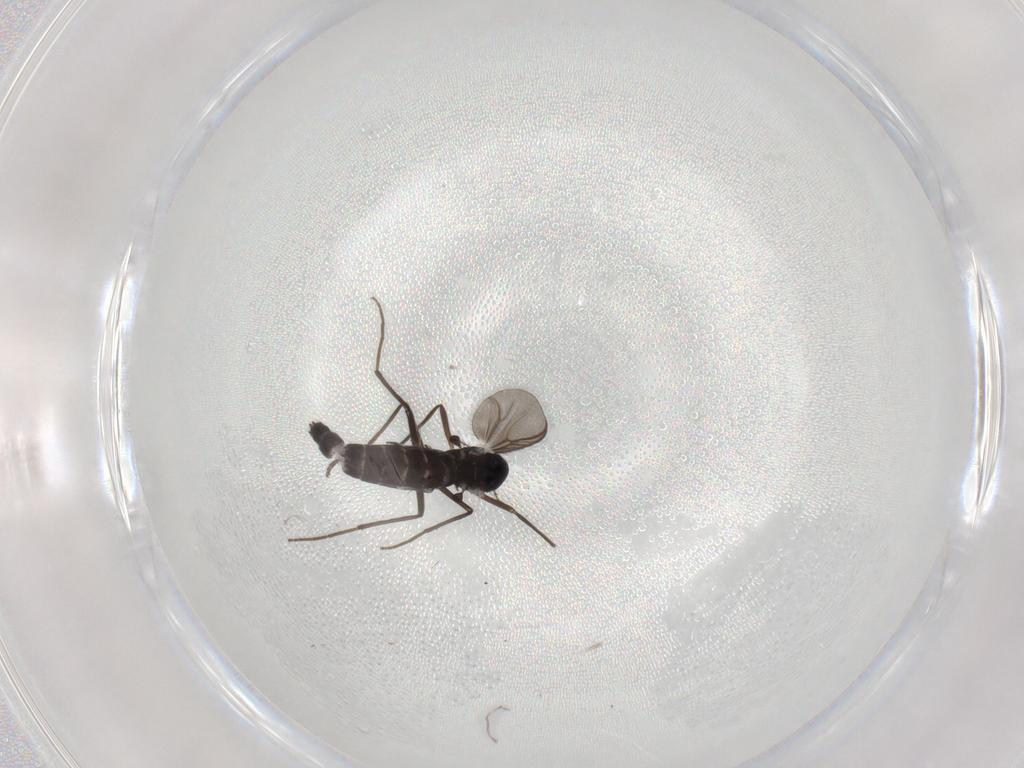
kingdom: Animalia
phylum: Arthropoda
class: Insecta
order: Diptera
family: Chironomidae
